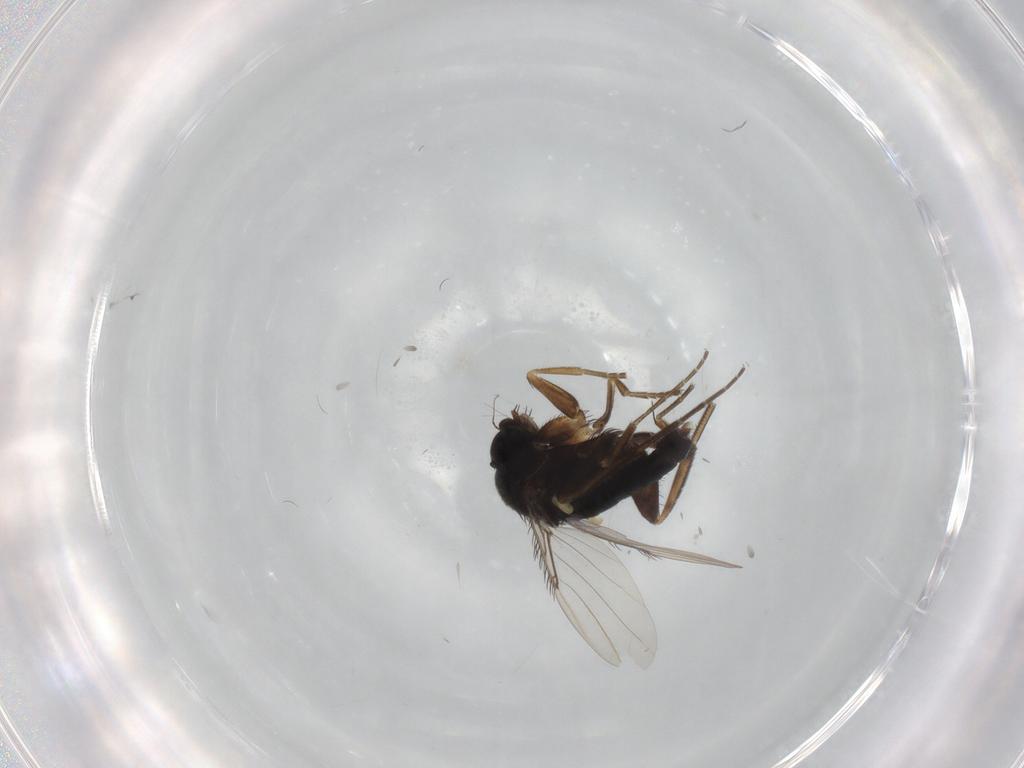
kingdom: Animalia
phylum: Arthropoda
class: Insecta
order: Diptera
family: Phoridae
